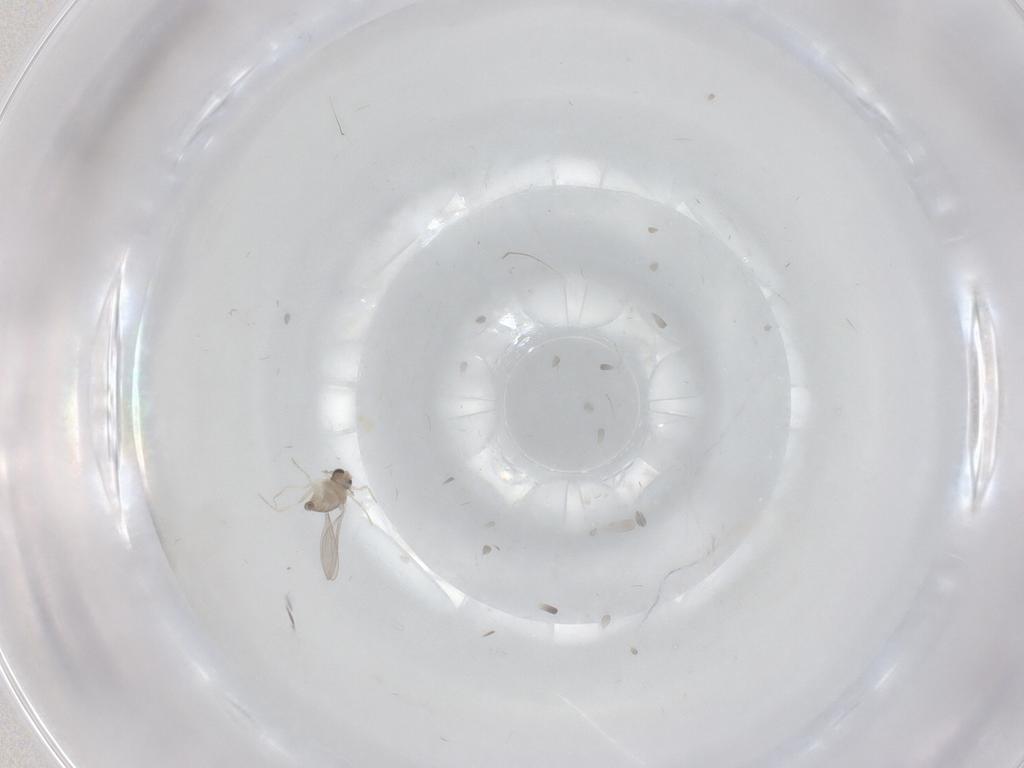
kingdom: Animalia
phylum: Arthropoda
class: Insecta
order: Diptera
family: Cecidomyiidae
